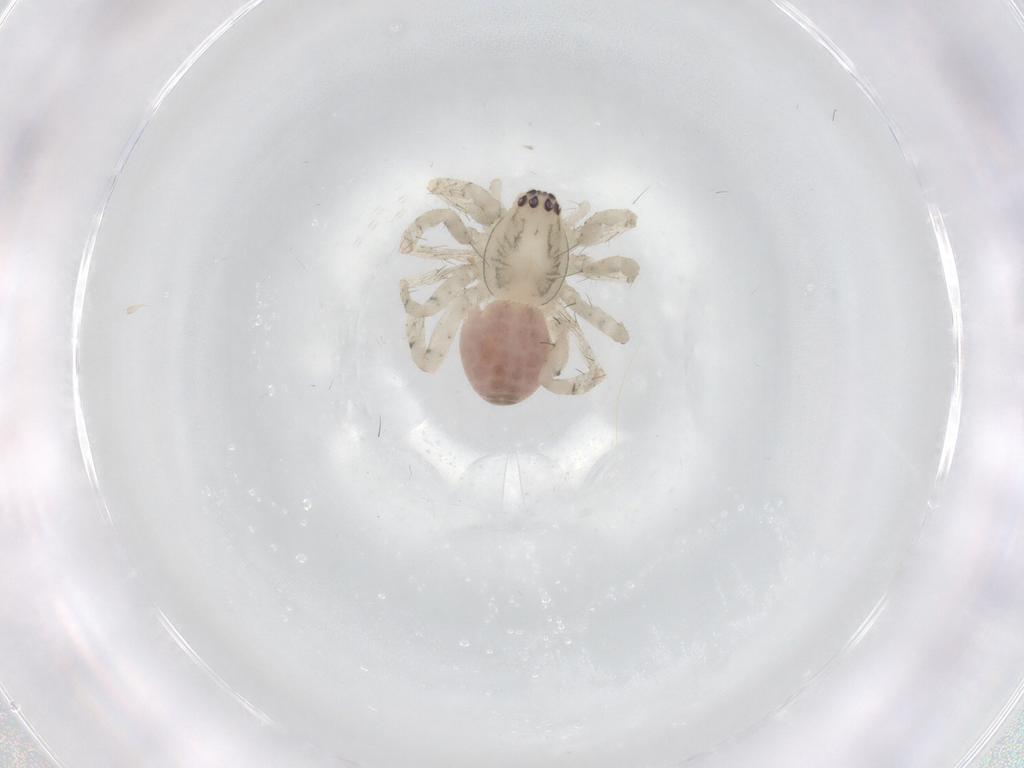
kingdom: Animalia
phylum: Arthropoda
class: Arachnida
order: Araneae
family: Anyphaenidae
